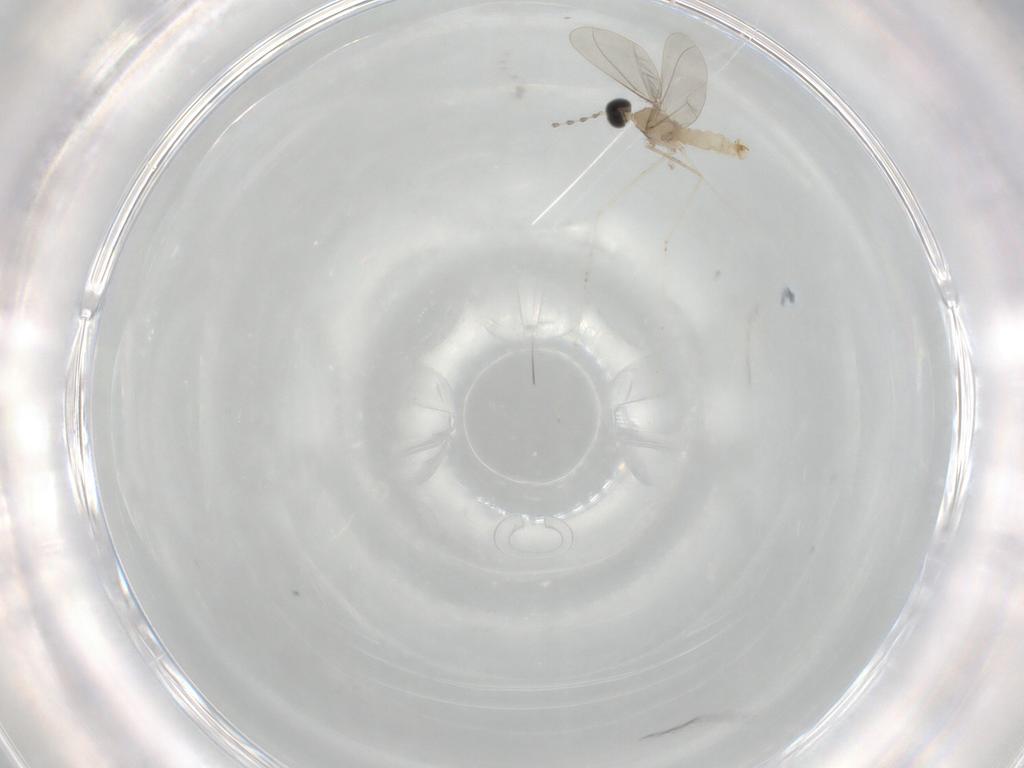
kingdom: Animalia
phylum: Arthropoda
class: Insecta
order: Diptera
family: Cecidomyiidae
